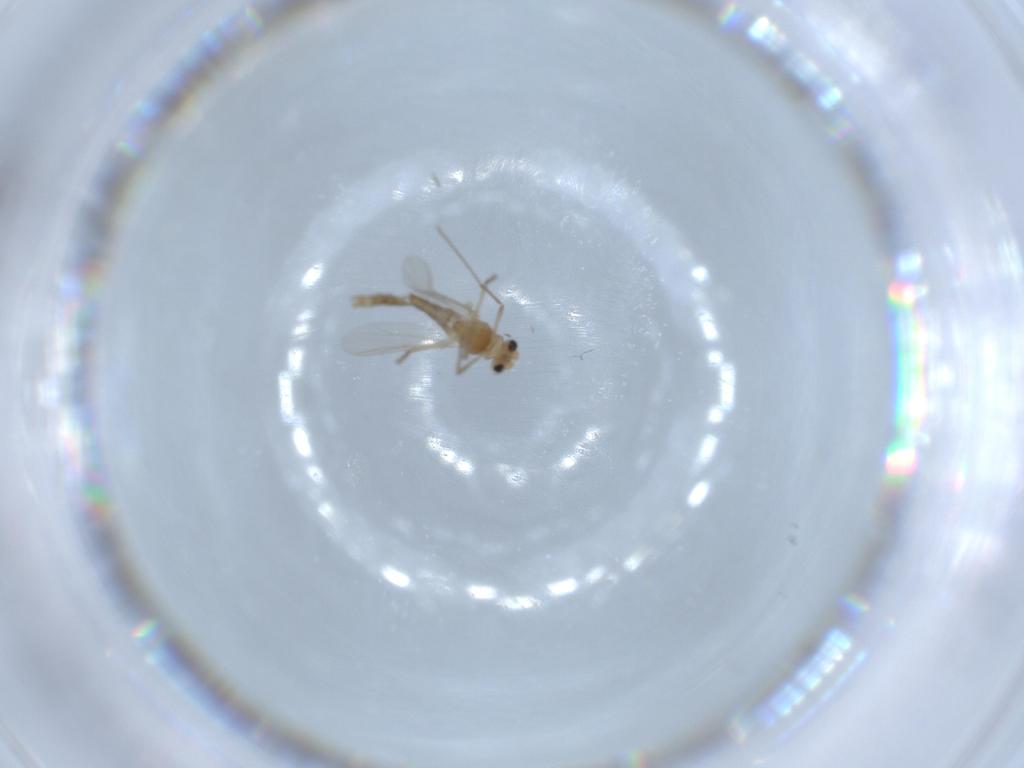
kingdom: Animalia
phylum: Arthropoda
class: Insecta
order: Diptera
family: Chironomidae
